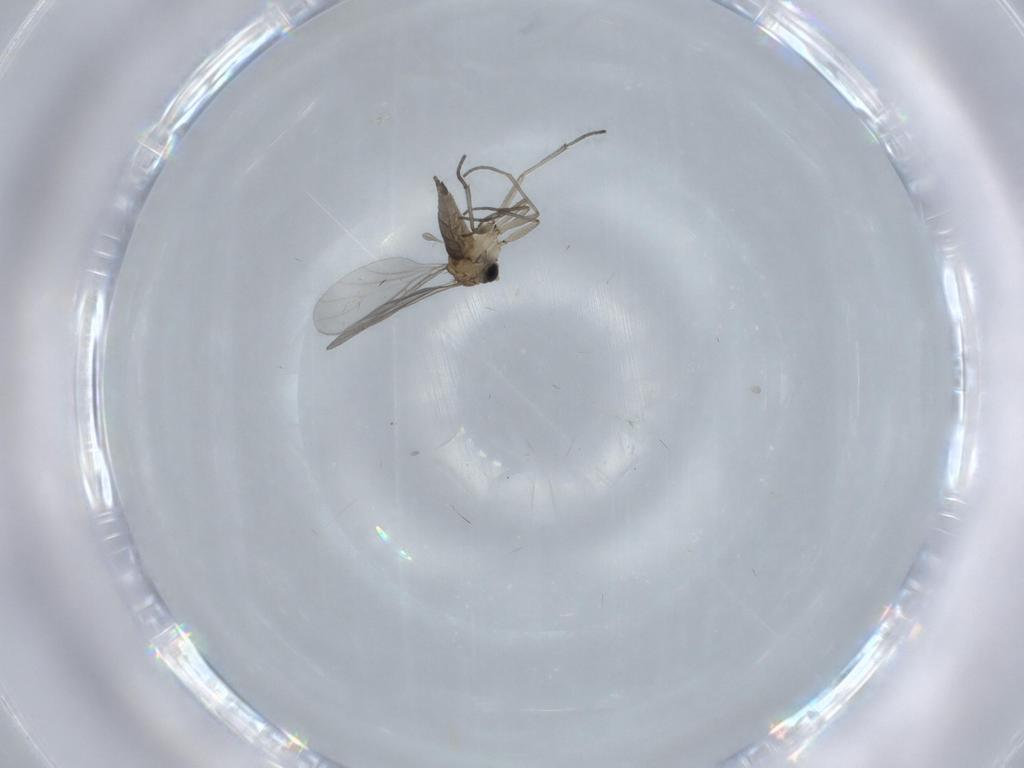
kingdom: Animalia
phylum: Arthropoda
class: Insecta
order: Diptera
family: Sciaridae
